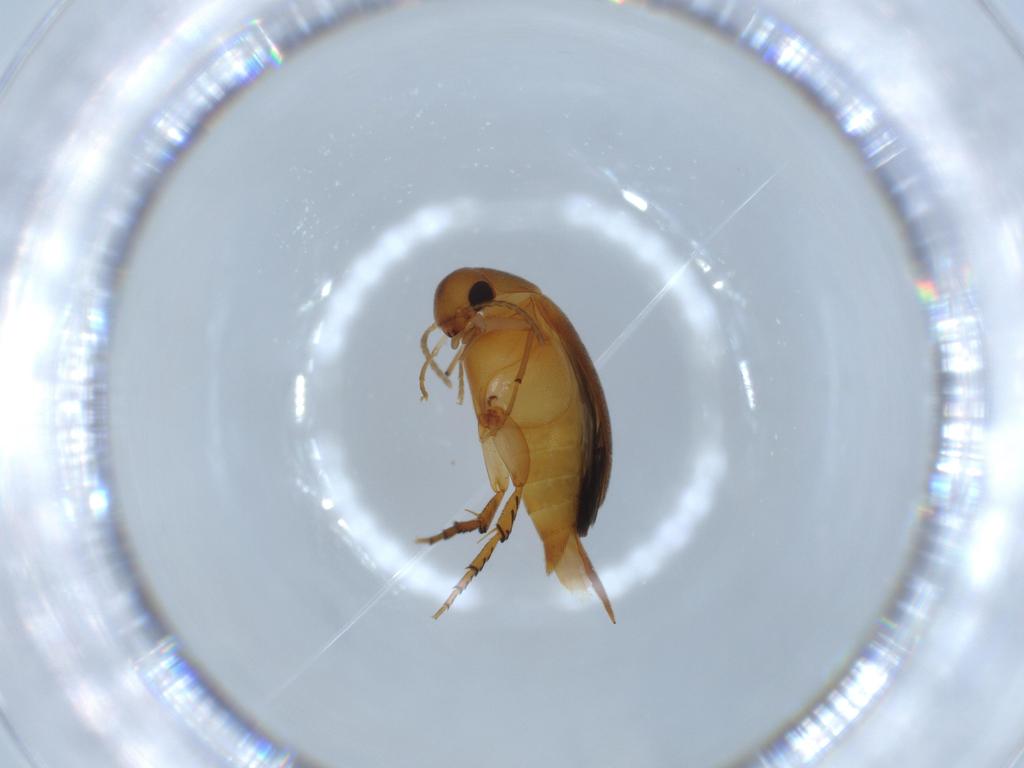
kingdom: Animalia
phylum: Arthropoda
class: Insecta
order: Coleoptera
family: Mordellidae
